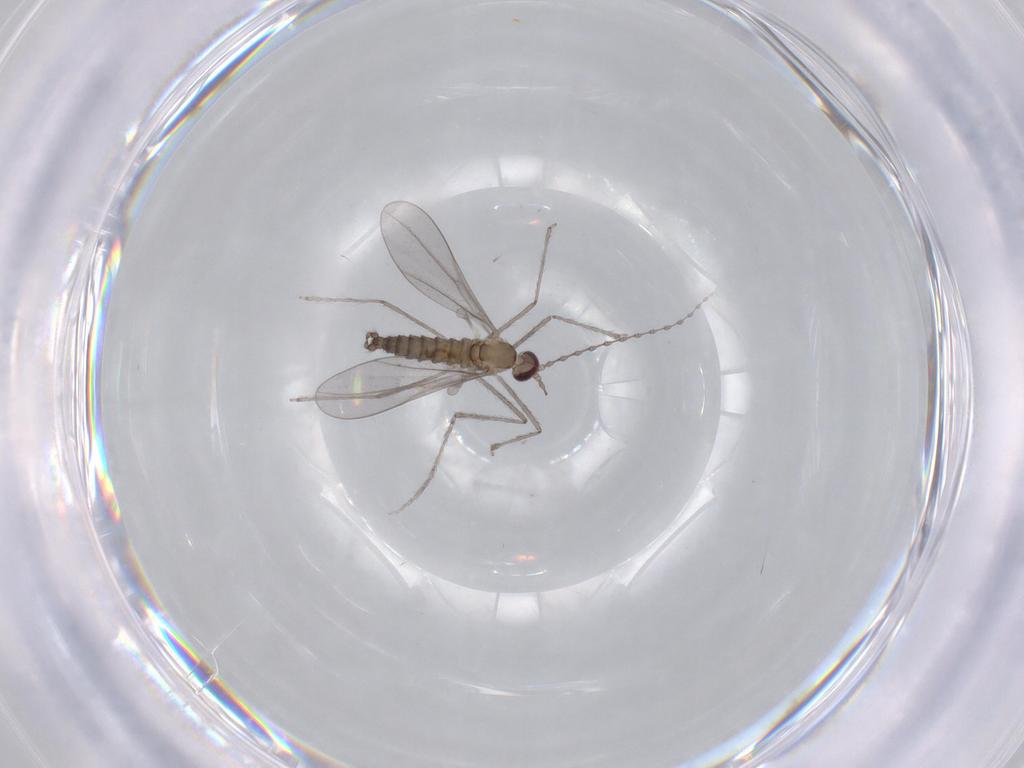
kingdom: Animalia
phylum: Arthropoda
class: Insecta
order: Diptera
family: Cecidomyiidae
